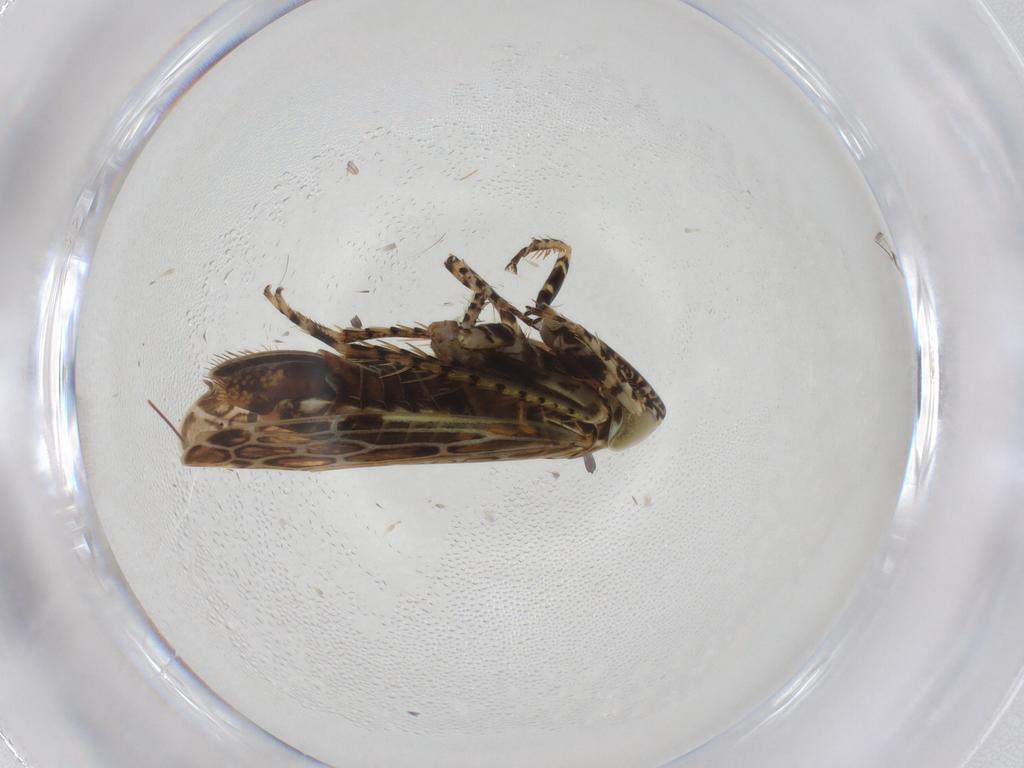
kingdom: Animalia
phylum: Arthropoda
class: Insecta
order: Hemiptera
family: Cicadellidae
